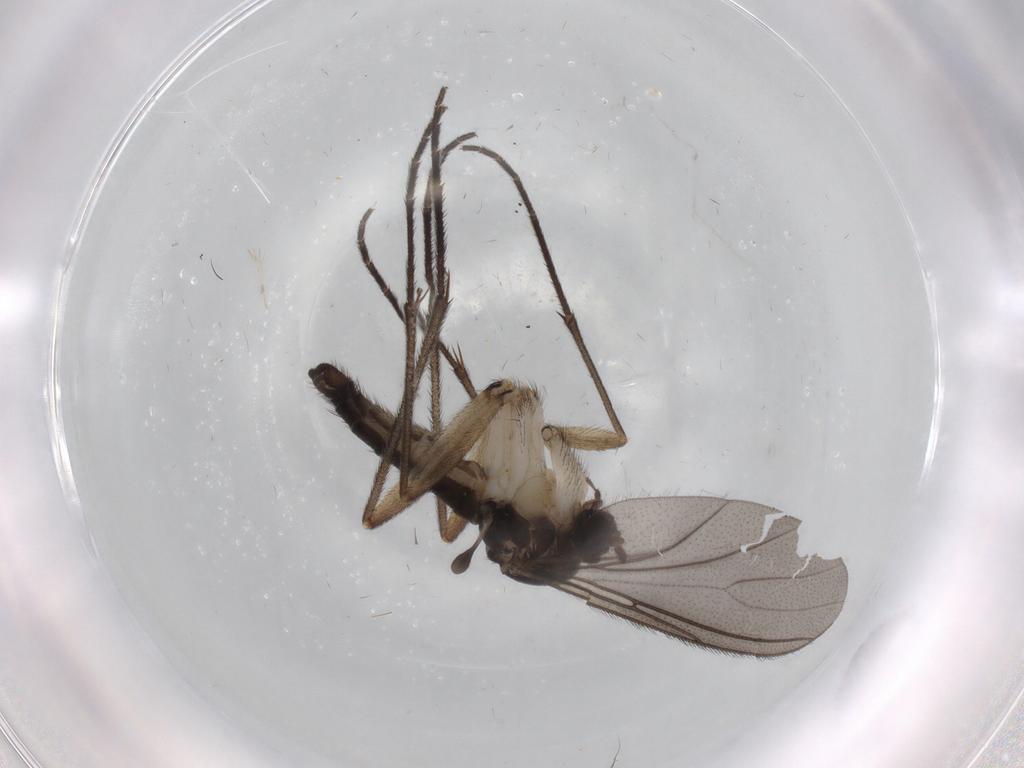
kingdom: Animalia
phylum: Arthropoda
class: Insecta
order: Diptera
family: Sciaridae
